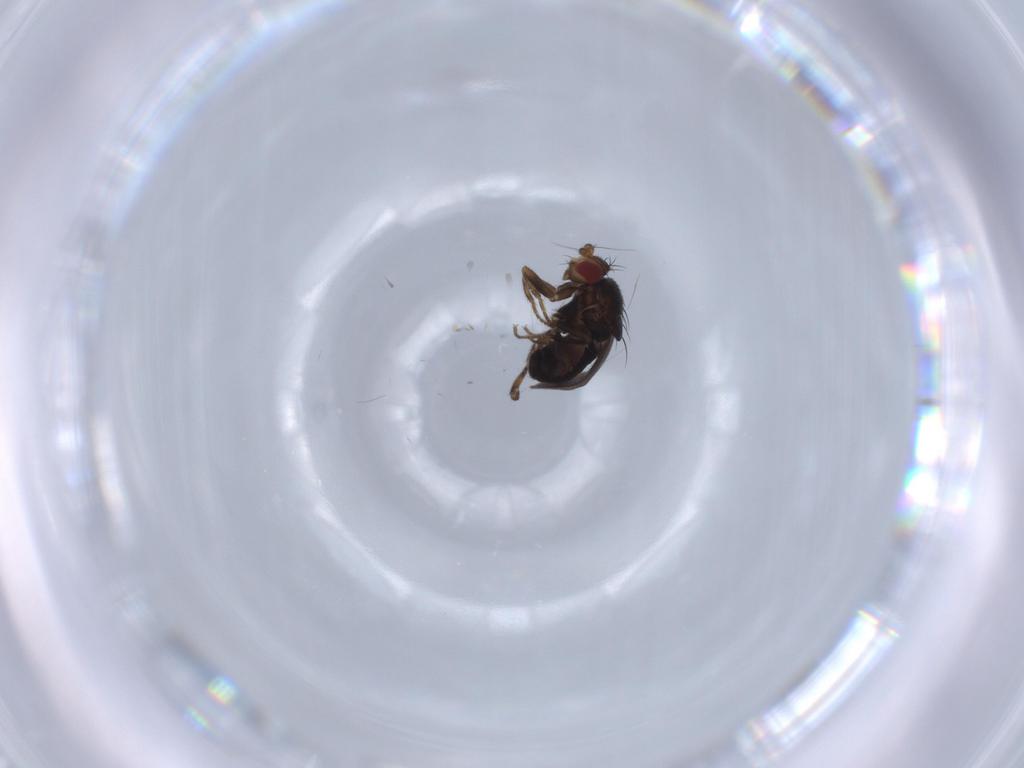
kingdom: Animalia
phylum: Arthropoda
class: Insecta
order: Diptera
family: Sphaeroceridae
